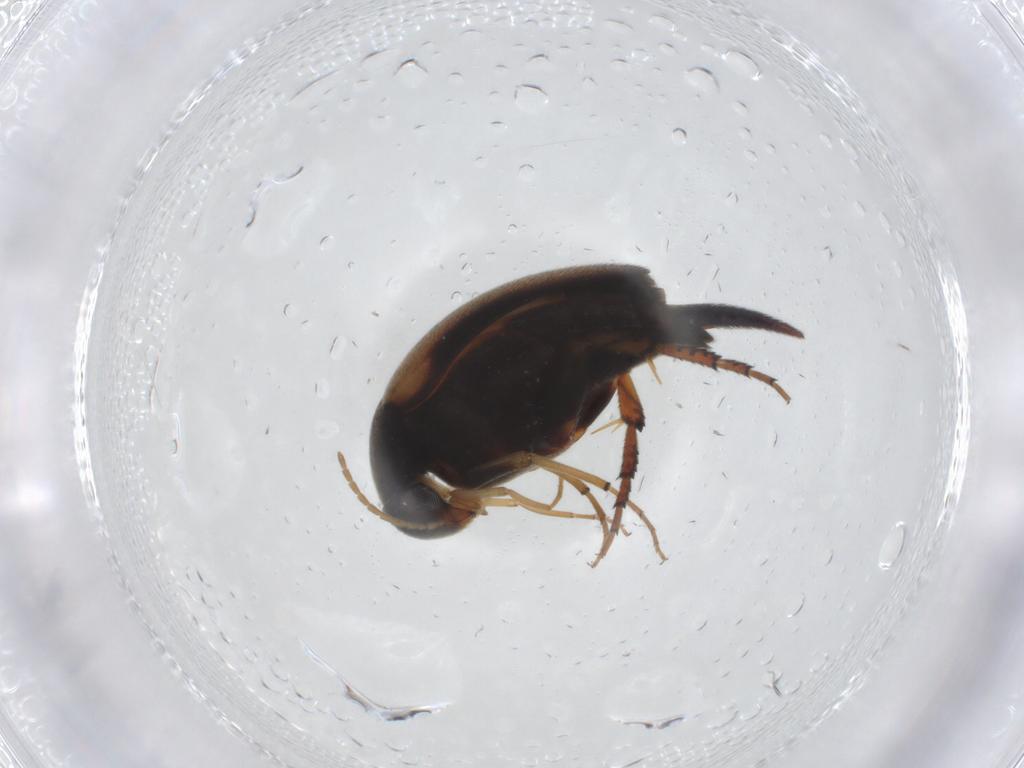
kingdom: Animalia
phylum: Arthropoda
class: Insecta
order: Coleoptera
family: Mordellidae
